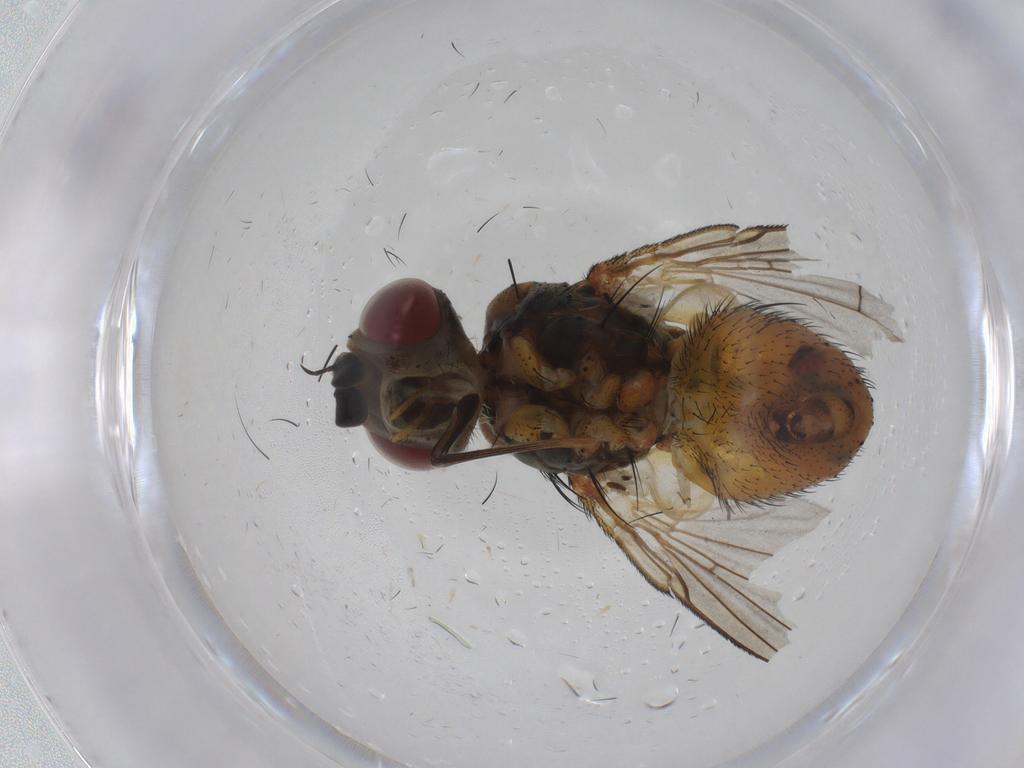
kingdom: Animalia
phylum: Arthropoda
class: Insecta
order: Diptera
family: Tachinidae
